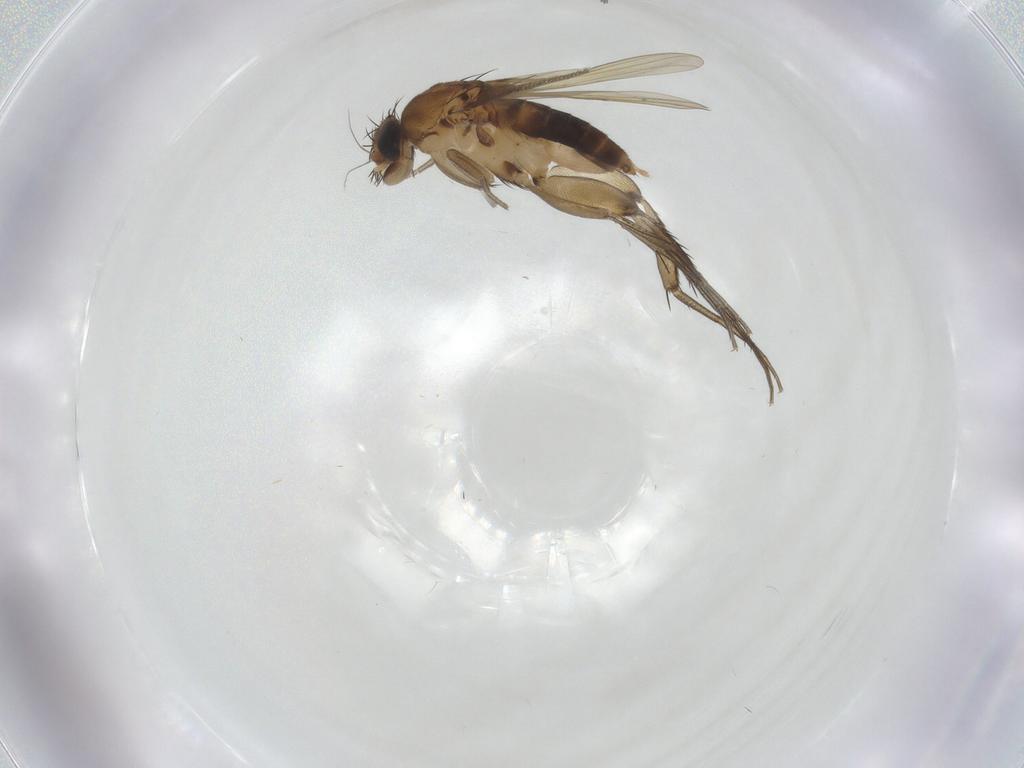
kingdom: Animalia
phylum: Arthropoda
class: Insecta
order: Diptera
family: Phoridae
